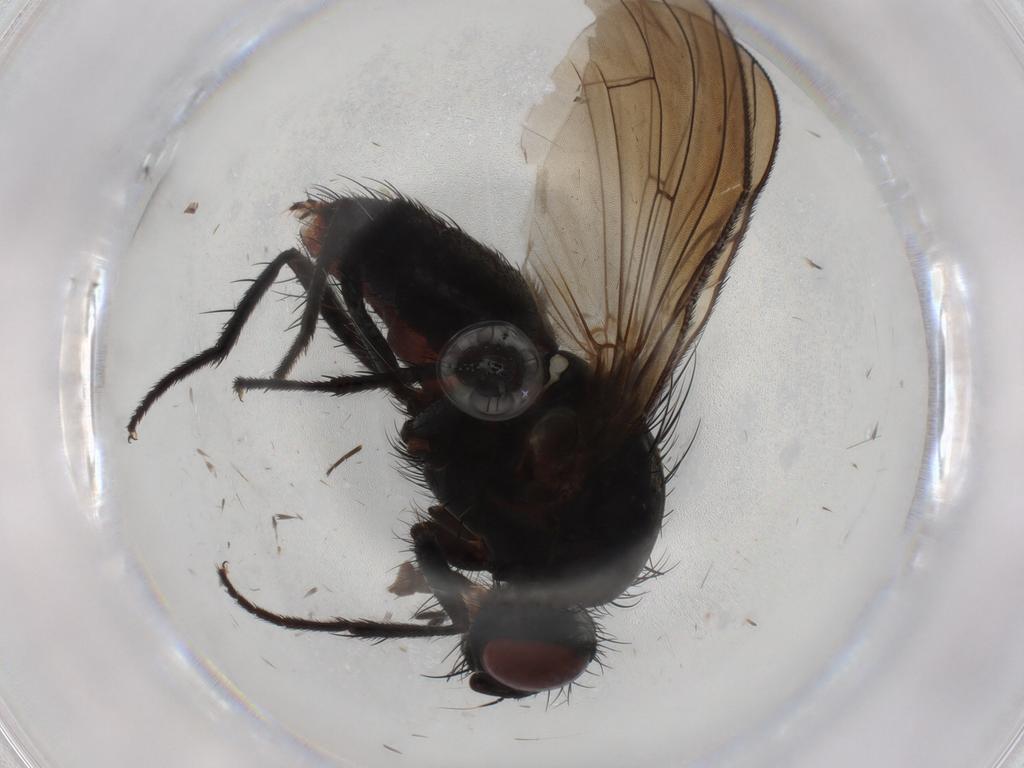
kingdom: Animalia
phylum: Arthropoda
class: Insecta
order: Diptera
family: Anthomyiidae
